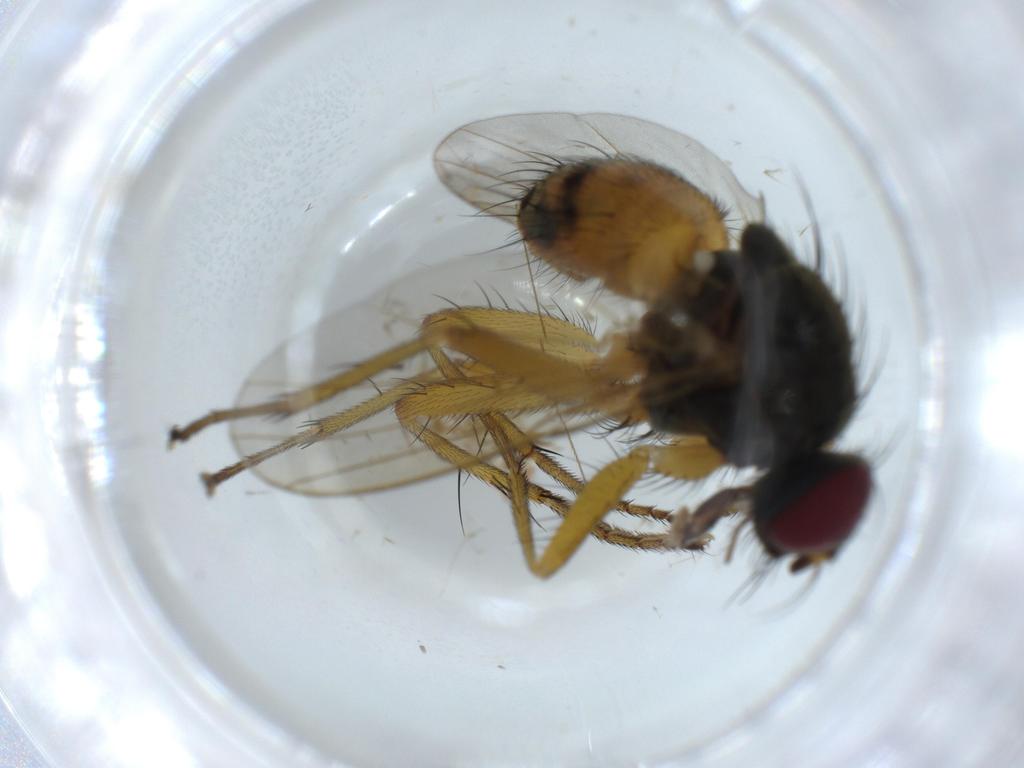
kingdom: Animalia
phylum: Arthropoda
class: Insecta
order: Diptera
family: Muscidae
